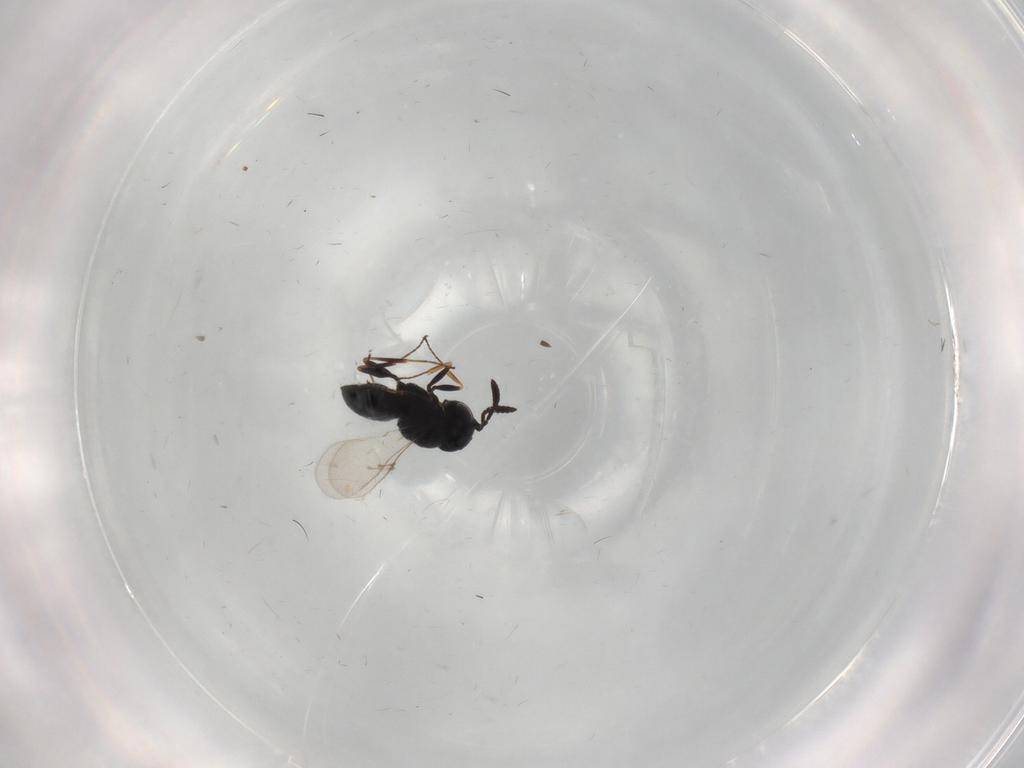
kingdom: Animalia
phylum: Arthropoda
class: Insecta
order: Hymenoptera
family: Scelionidae
